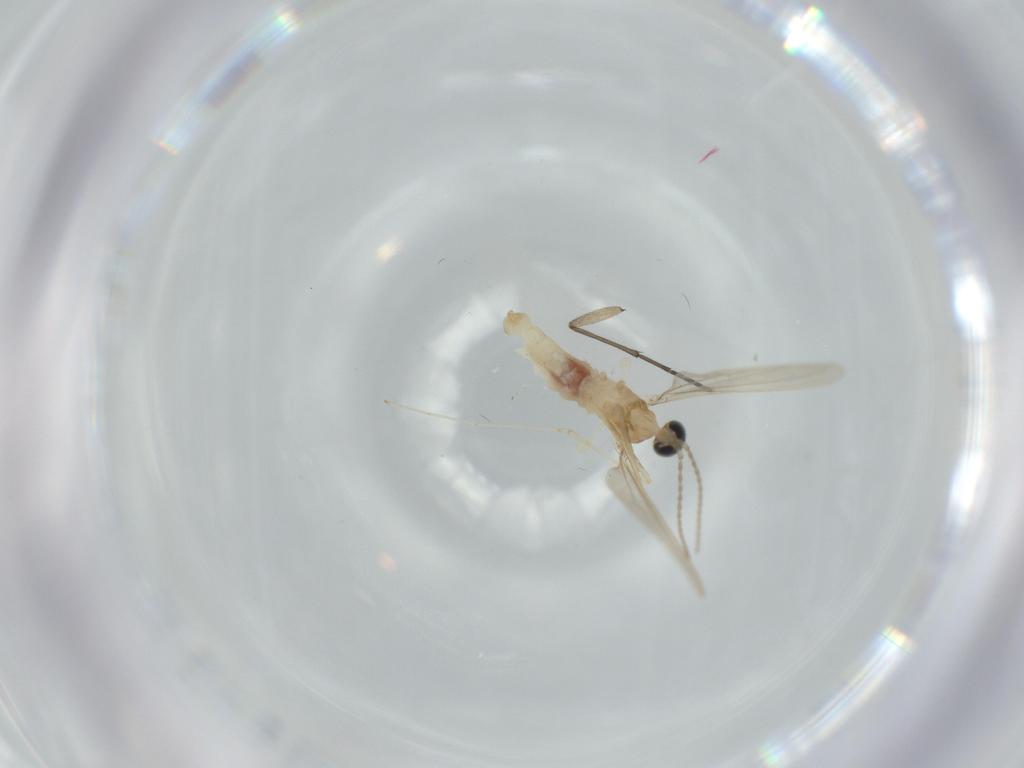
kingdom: Animalia
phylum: Arthropoda
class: Insecta
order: Diptera
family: Cecidomyiidae
